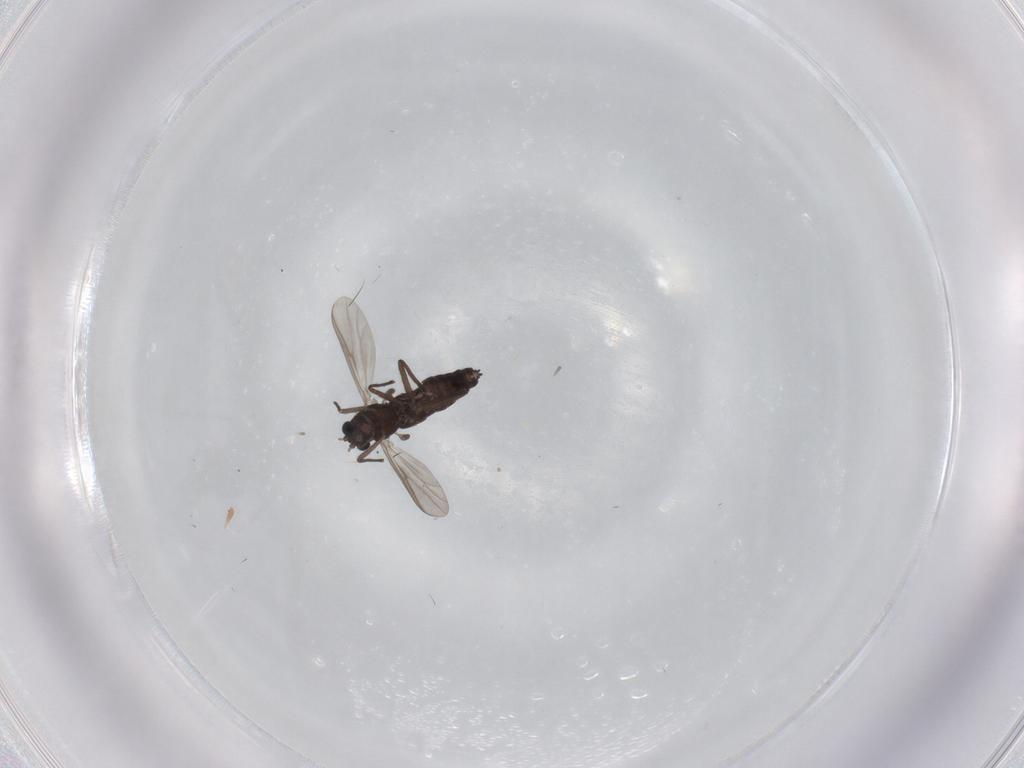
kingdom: Animalia
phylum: Arthropoda
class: Insecta
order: Diptera
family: Chironomidae
